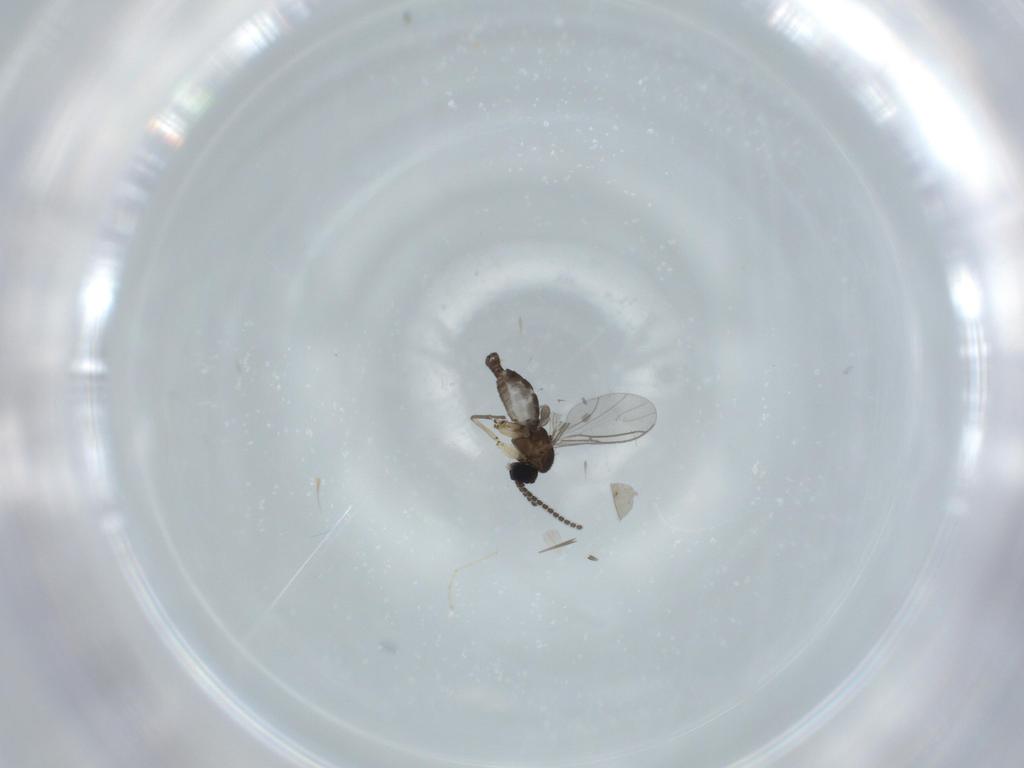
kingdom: Animalia
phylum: Arthropoda
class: Insecta
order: Diptera
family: Sciaridae
